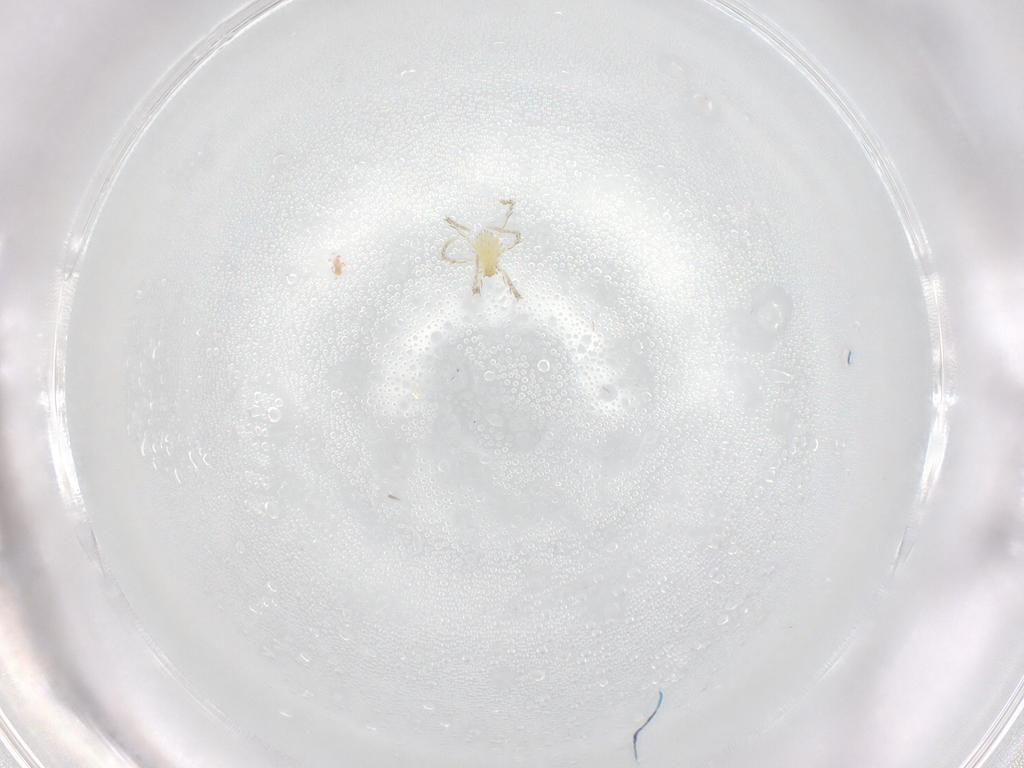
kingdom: Animalia
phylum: Arthropoda
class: Arachnida
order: Trombidiformes
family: Erythraeidae
